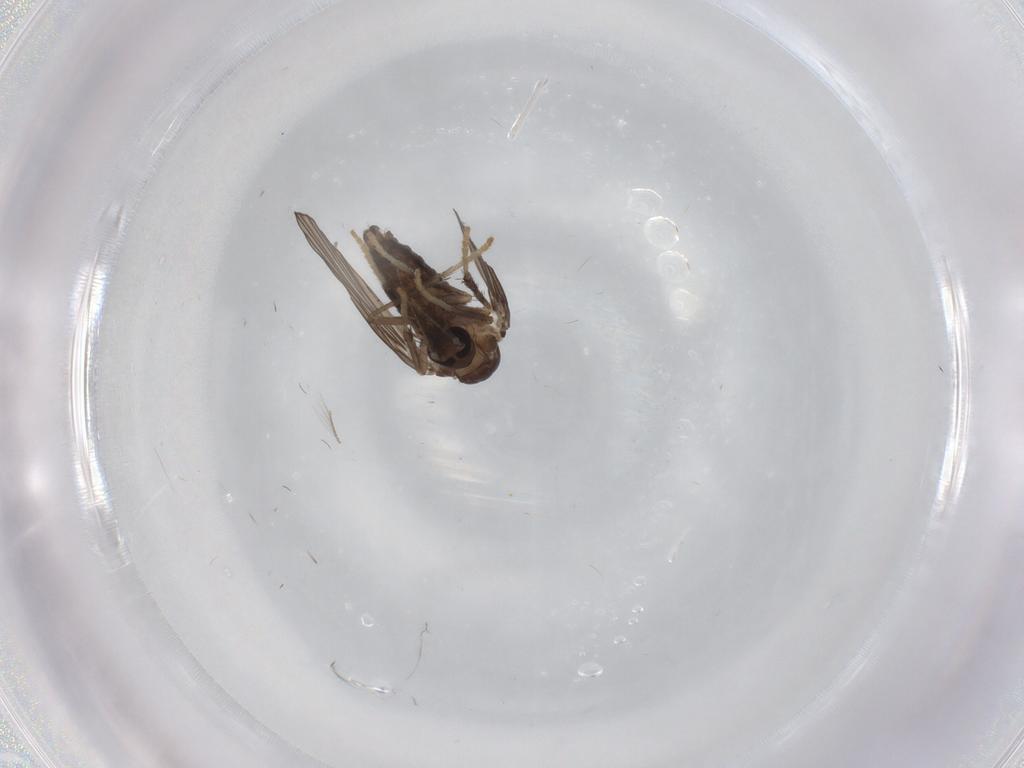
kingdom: Animalia
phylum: Arthropoda
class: Insecta
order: Diptera
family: Psychodidae
